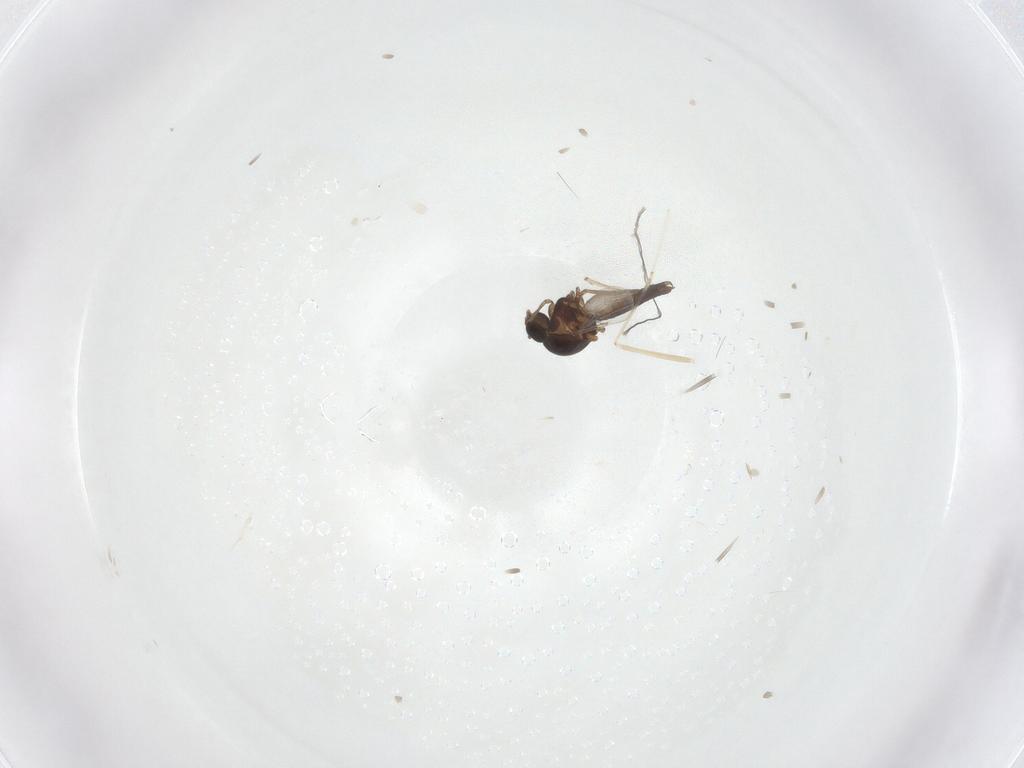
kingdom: Animalia
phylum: Arthropoda
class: Insecta
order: Diptera
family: Ceratopogonidae
